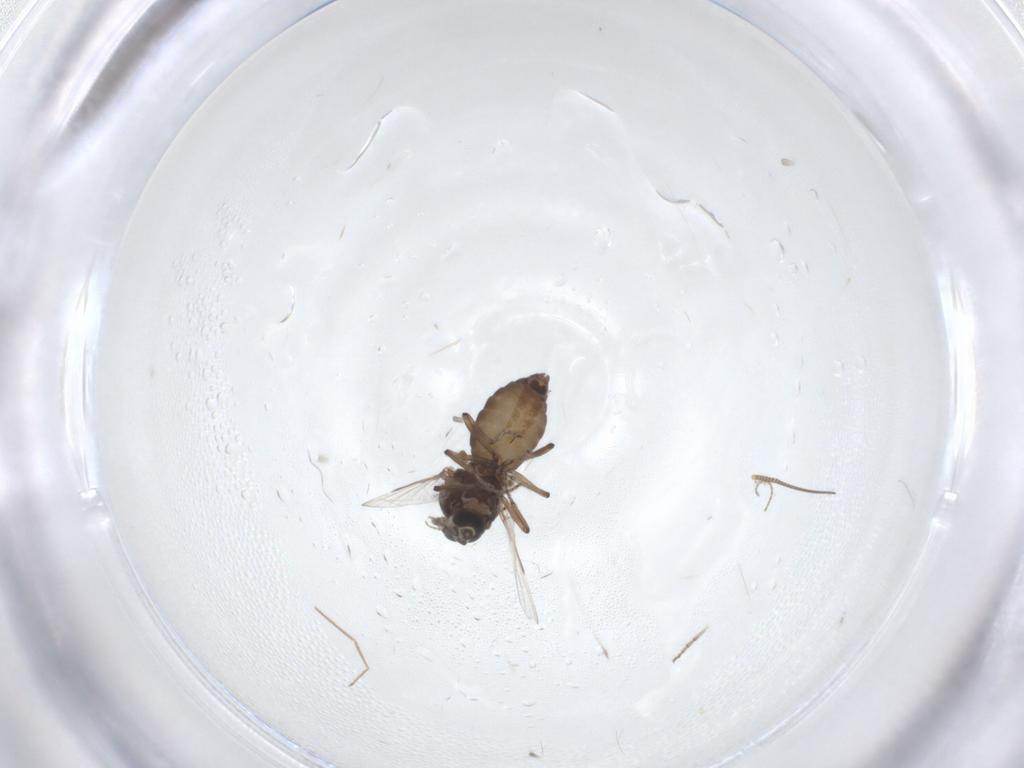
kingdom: Animalia
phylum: Arthropoda
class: Insecta
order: Diptera
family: Ceratopogonidae
